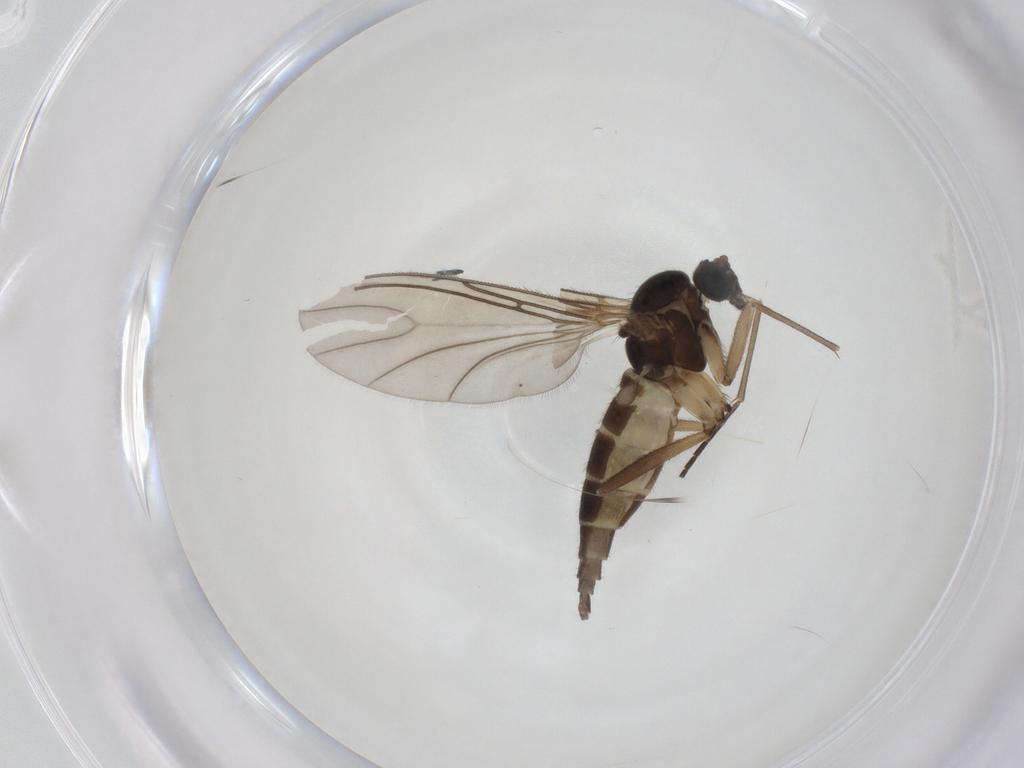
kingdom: Animalia
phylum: Arthropoda
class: Insecta
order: Diptera
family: Sciaridae
